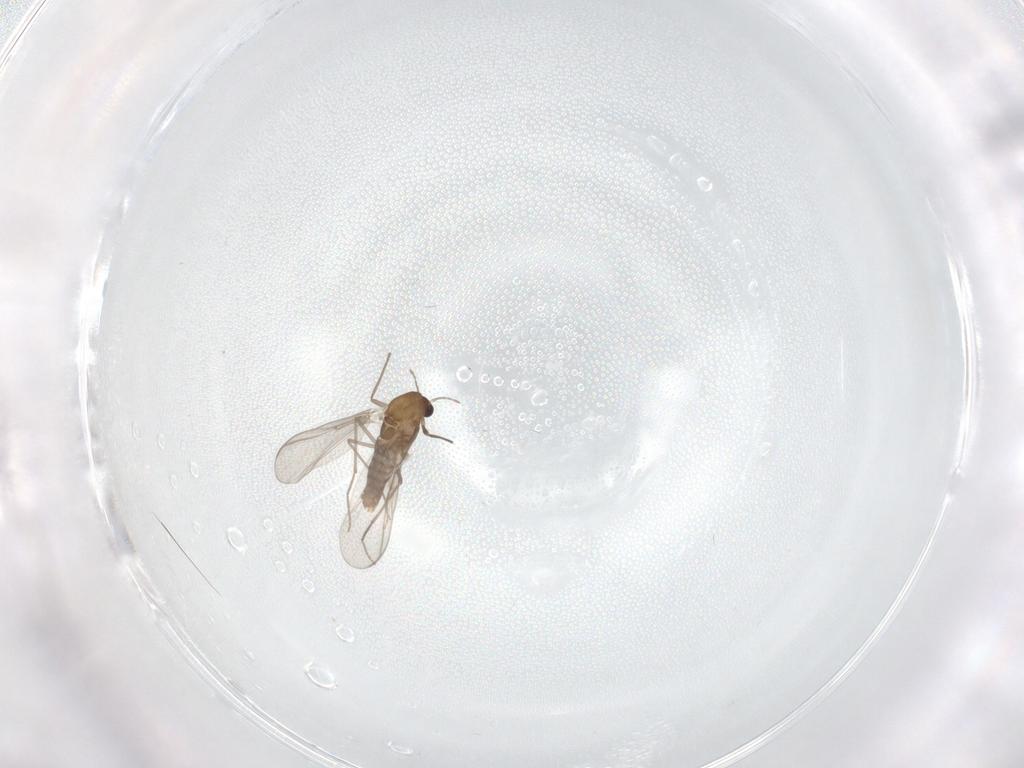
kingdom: Animalia
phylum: Arthropoda
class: Insecta
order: Diptera
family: Chironomidae
